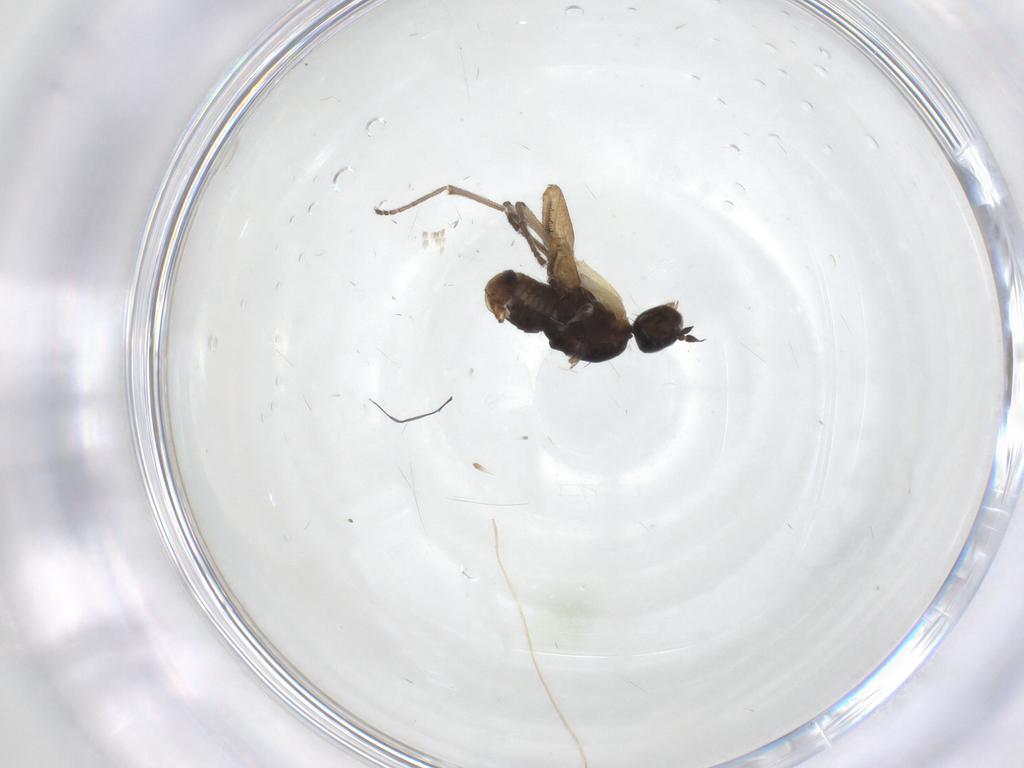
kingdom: Animalia
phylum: Arthropoda
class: Insecta
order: Diptera
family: Empididae
